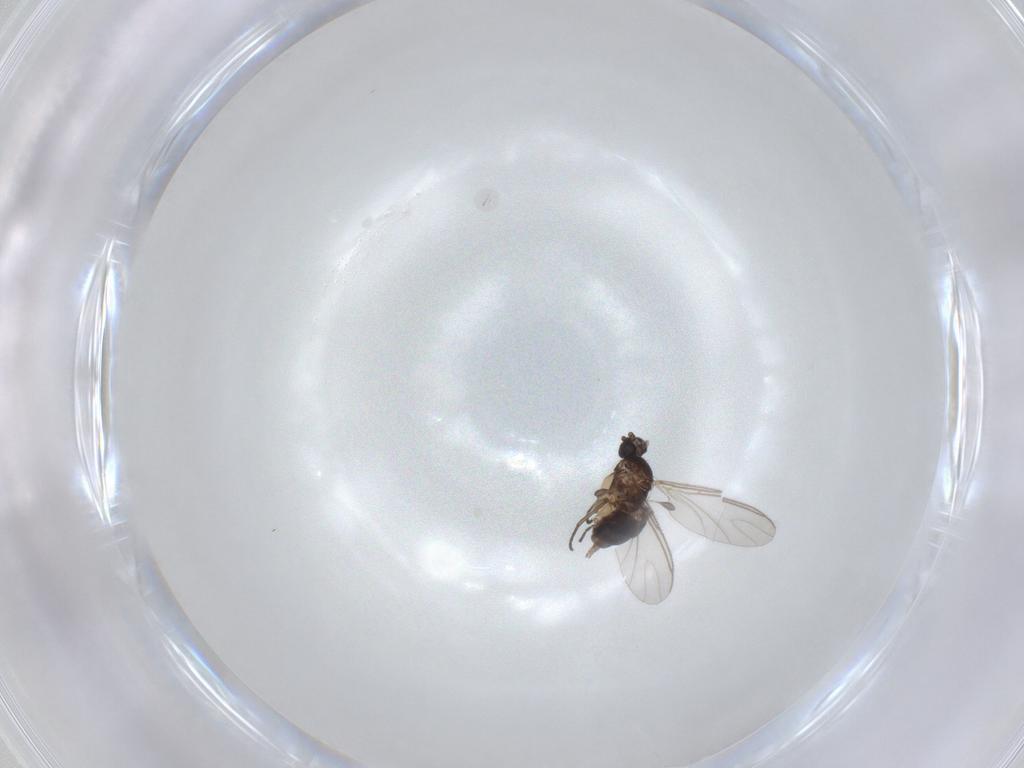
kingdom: Animalia
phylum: Arthropoda
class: Insecta
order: Diptera
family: Sciaridae
